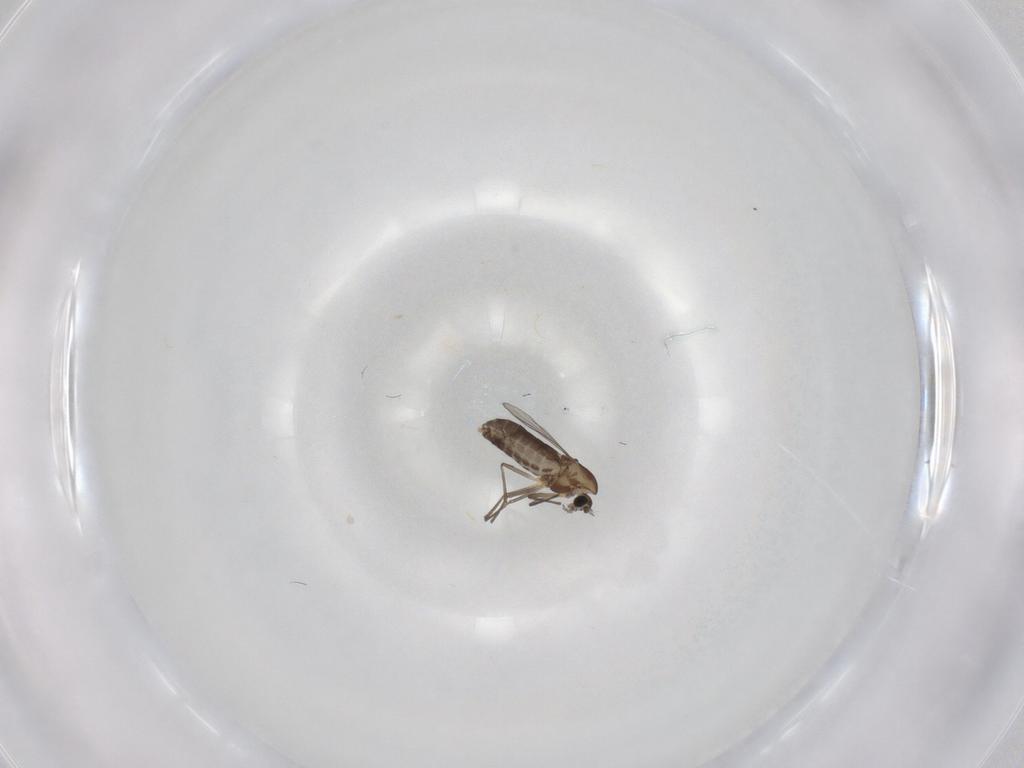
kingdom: Animalia
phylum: Arthropoda
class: Insecta
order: Diptera
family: Chironomidae
